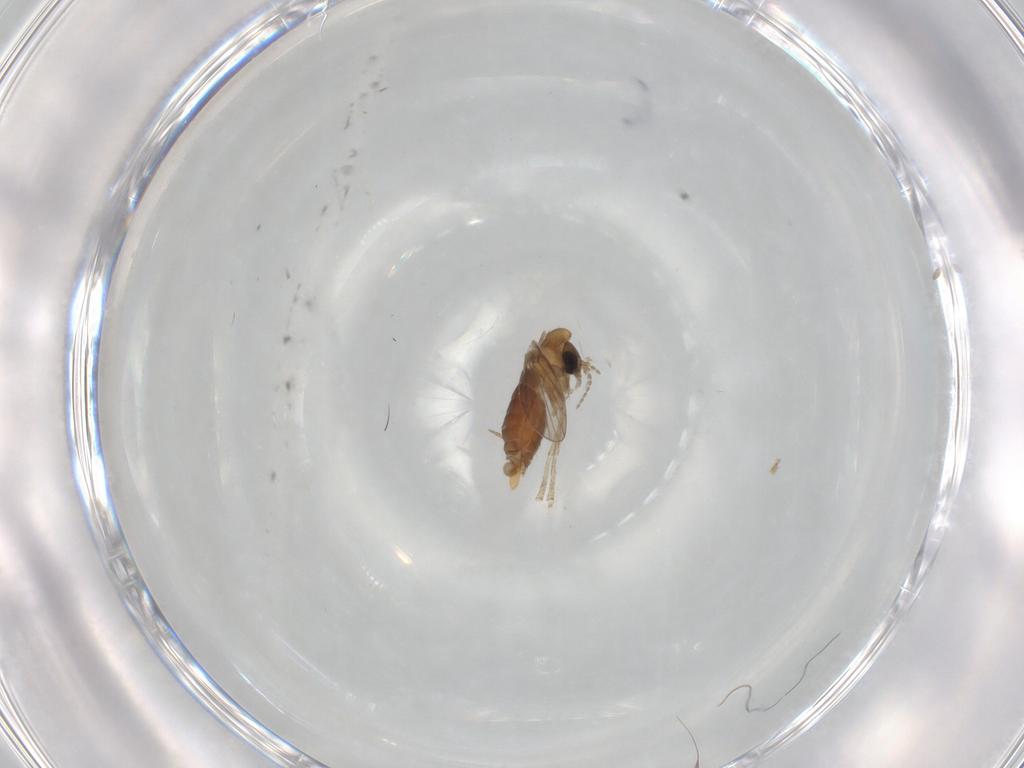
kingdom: Animalia
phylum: Arthropoda
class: Insecta
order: Diptera
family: Psychodidae
